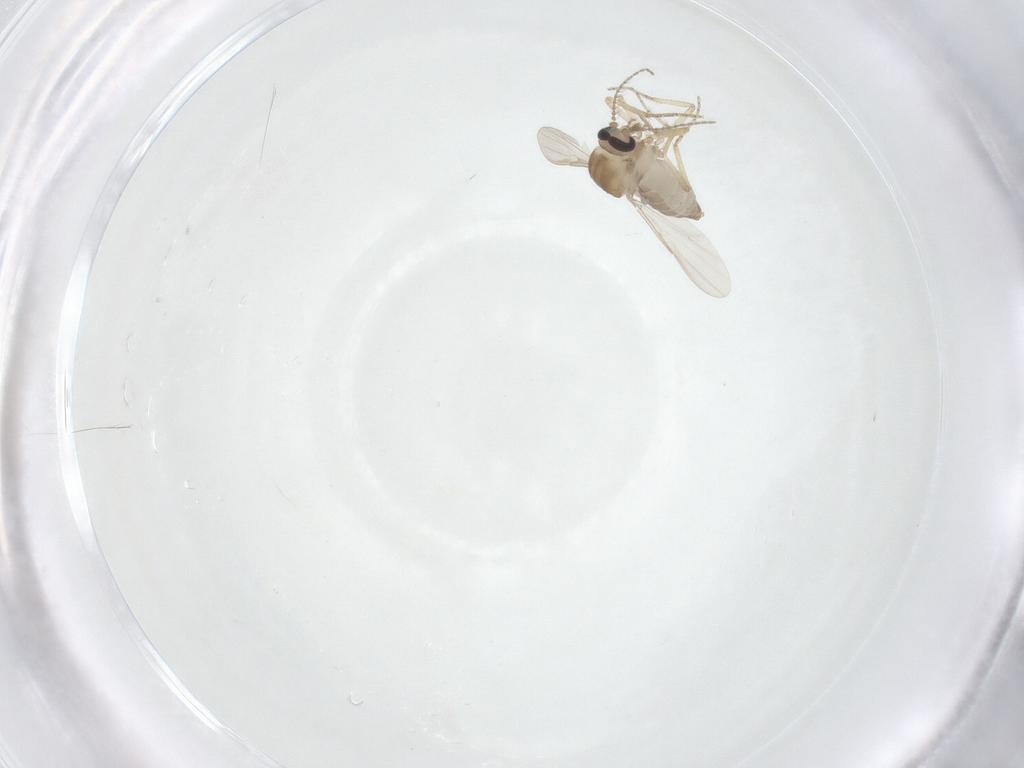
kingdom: Animalia
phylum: Arthropoda
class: Insecta
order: Diptera
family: Ceratopogonidae
